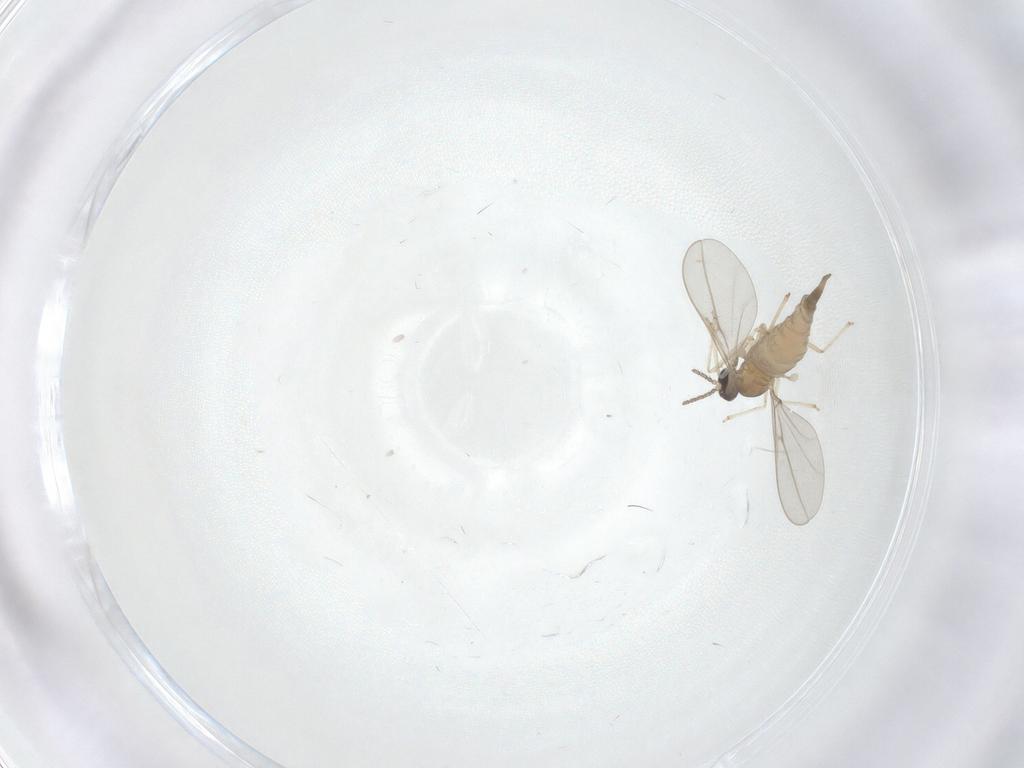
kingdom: Animalia
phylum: Arthropoda
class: Insecta
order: Diptera
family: Cecidomyiidae
